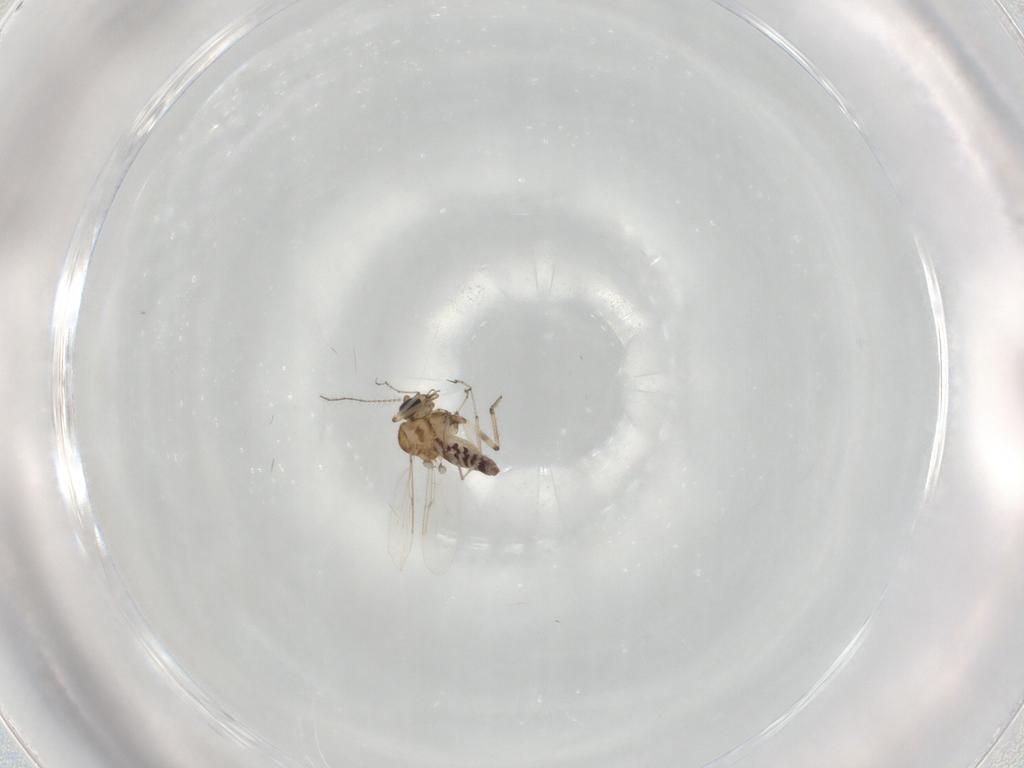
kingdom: Animalia
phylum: Arthropoda
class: Insecta
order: Diptera
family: Ceratopogonidae
